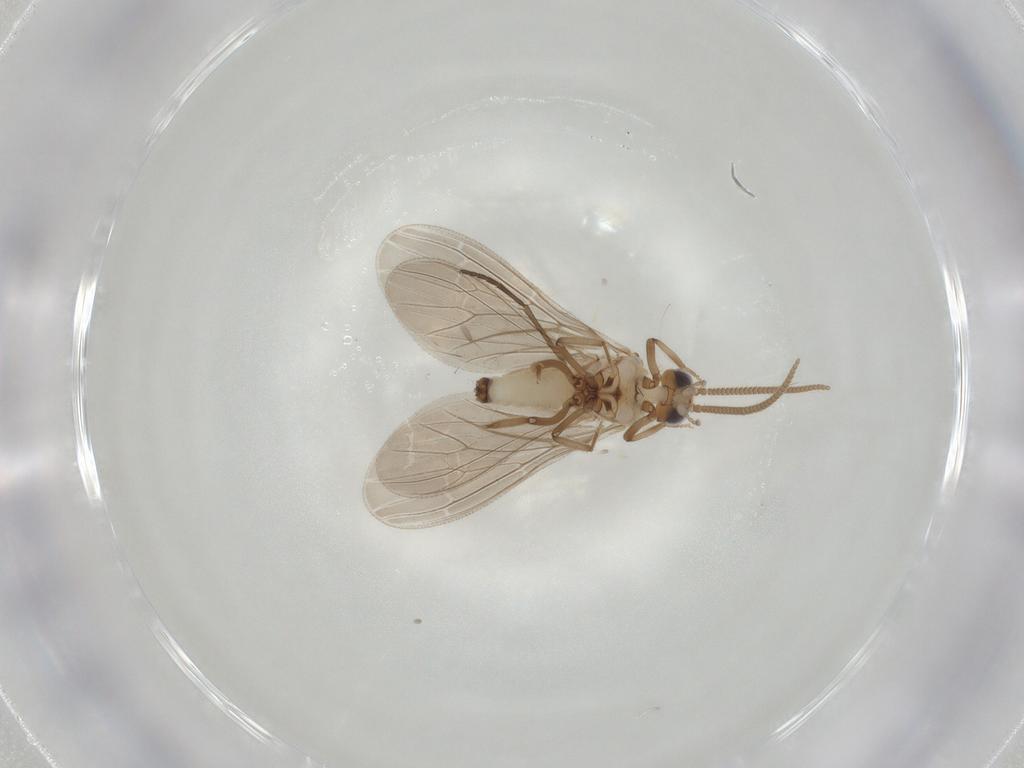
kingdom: Animalia
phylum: Arthropoda
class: Insecta
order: Neuroptera
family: Coniopterygidae
